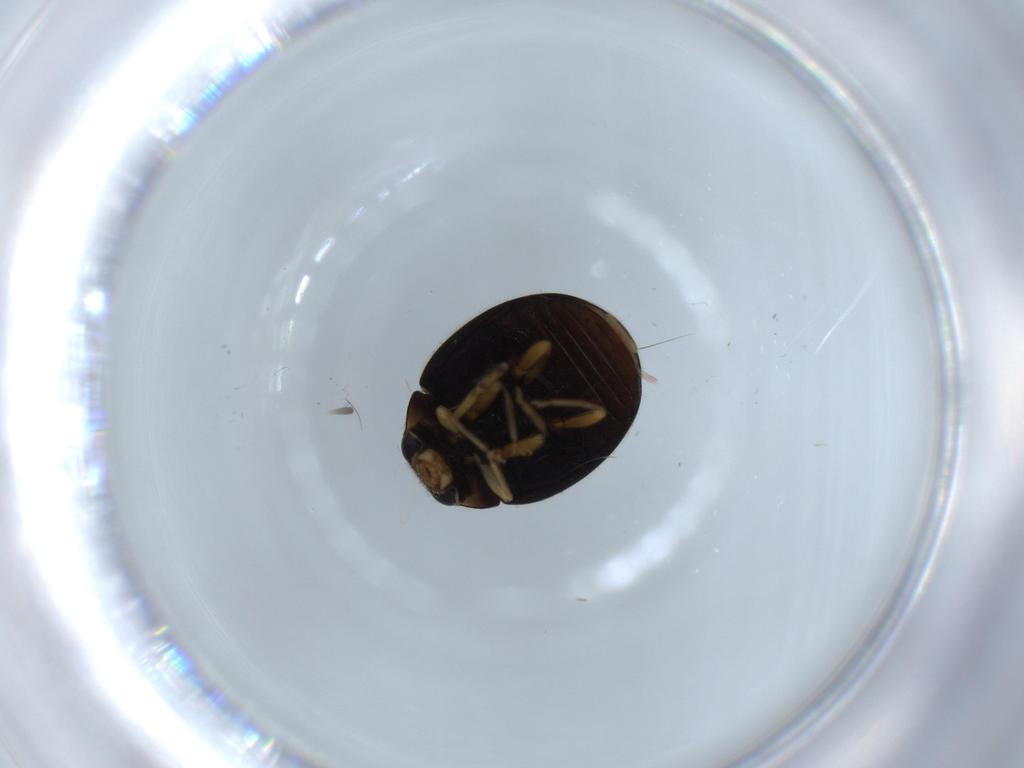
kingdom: Animalia
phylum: Arthropoda
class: Insecta
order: Coleoptera
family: Coccinellidae
